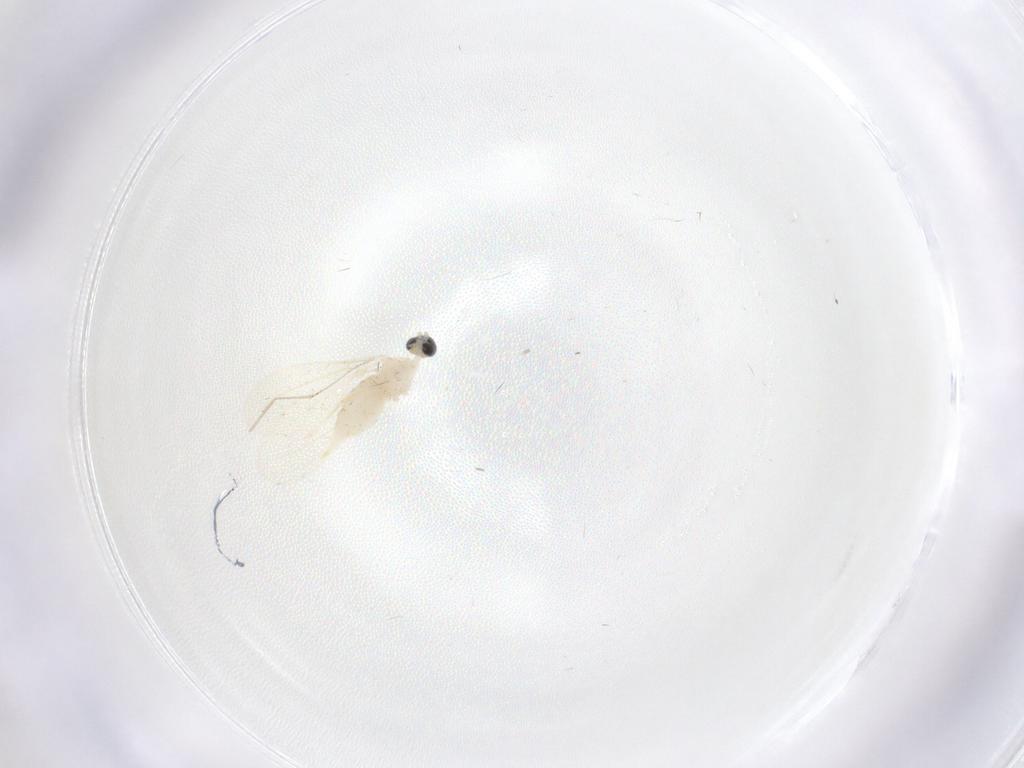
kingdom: Animalia
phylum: Arthropoda
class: Insecta
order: Diptera
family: Cecidomyiidae
